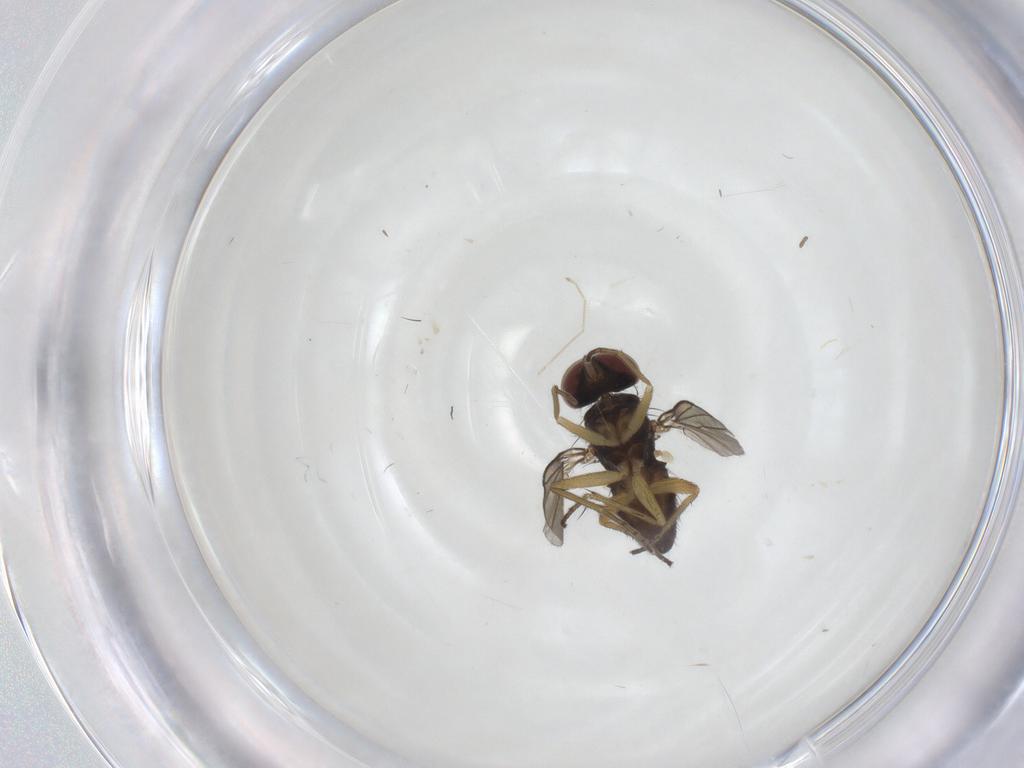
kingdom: Animalia
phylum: Arthropoda
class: Insecta
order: Diptera
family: Dolichopodidae
